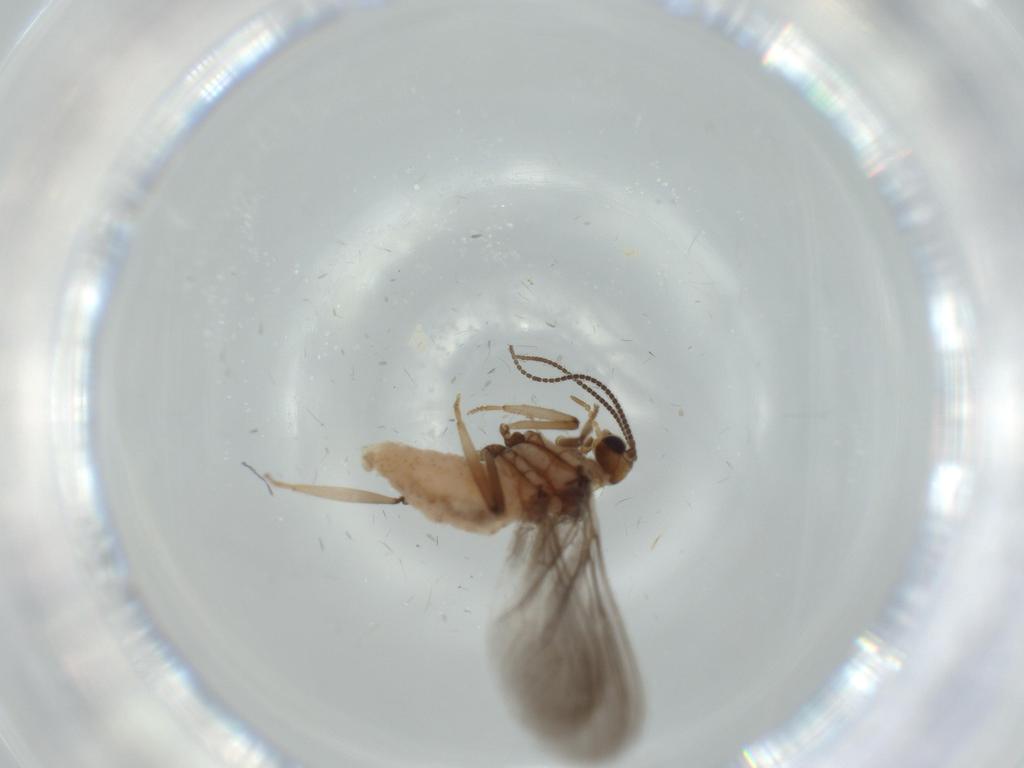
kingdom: Animalia
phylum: Arthropoda
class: Insecta
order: Neuroptera
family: Coniopterygidae
